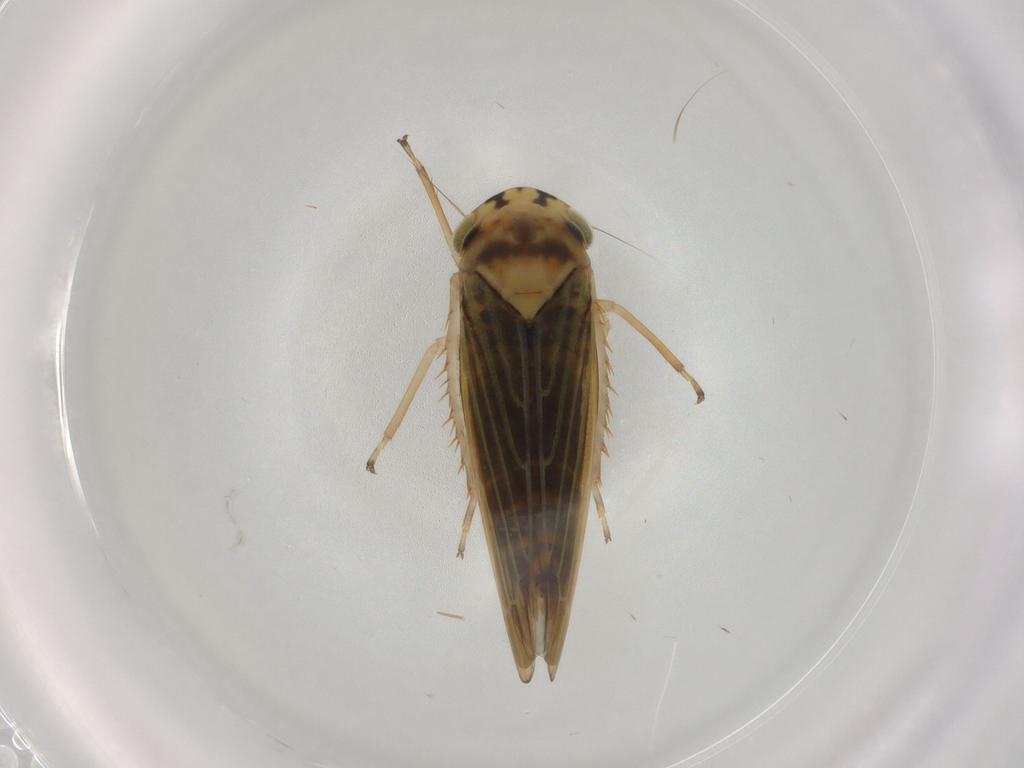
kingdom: Animalia
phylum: Arthropoda
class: Insecta
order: Hemiptera
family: Cicadellidae
